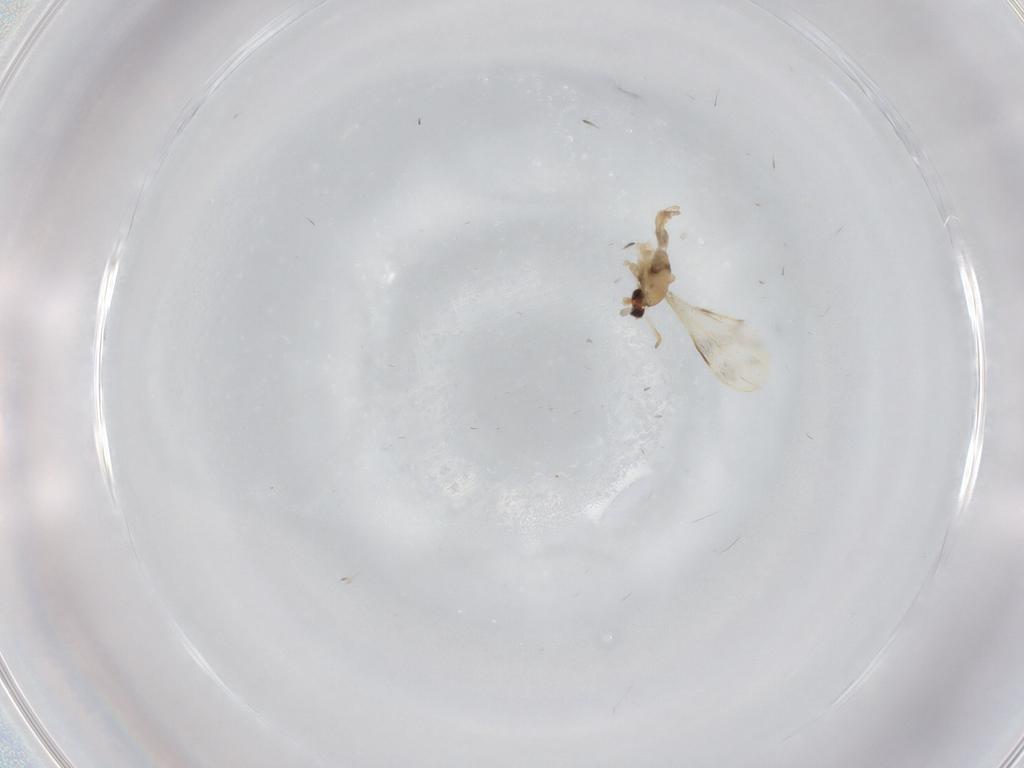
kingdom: Animalia
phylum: Arthropoda
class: Insecta
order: Diptera
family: Cecidomyiidae
